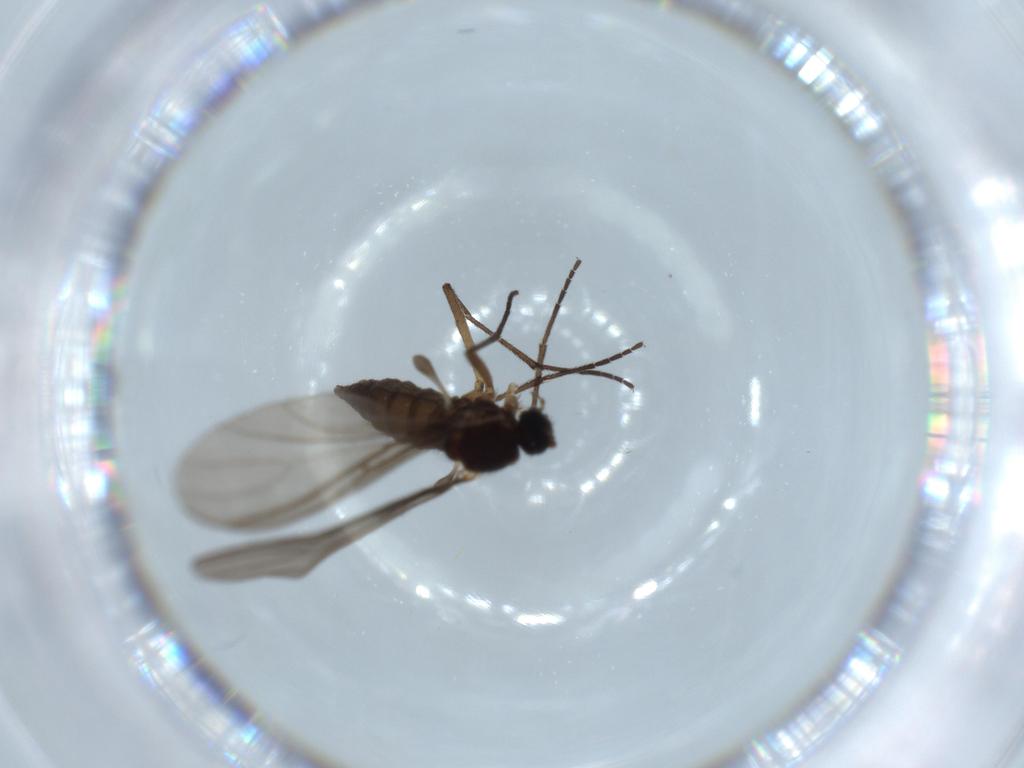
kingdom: Animalia
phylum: Arthropoda
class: Insecta
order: Diptera
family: Sciaridae
